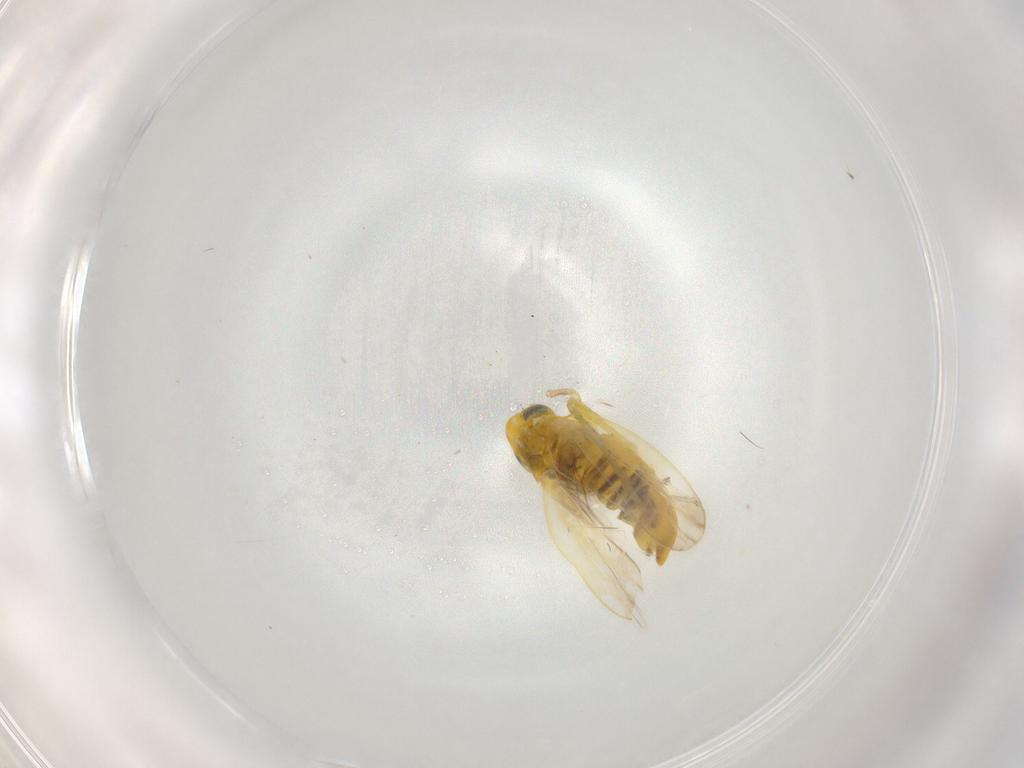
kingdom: Animalia
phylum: Arthropoda
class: Insecta
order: Hemiptera
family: Cicadellidae
